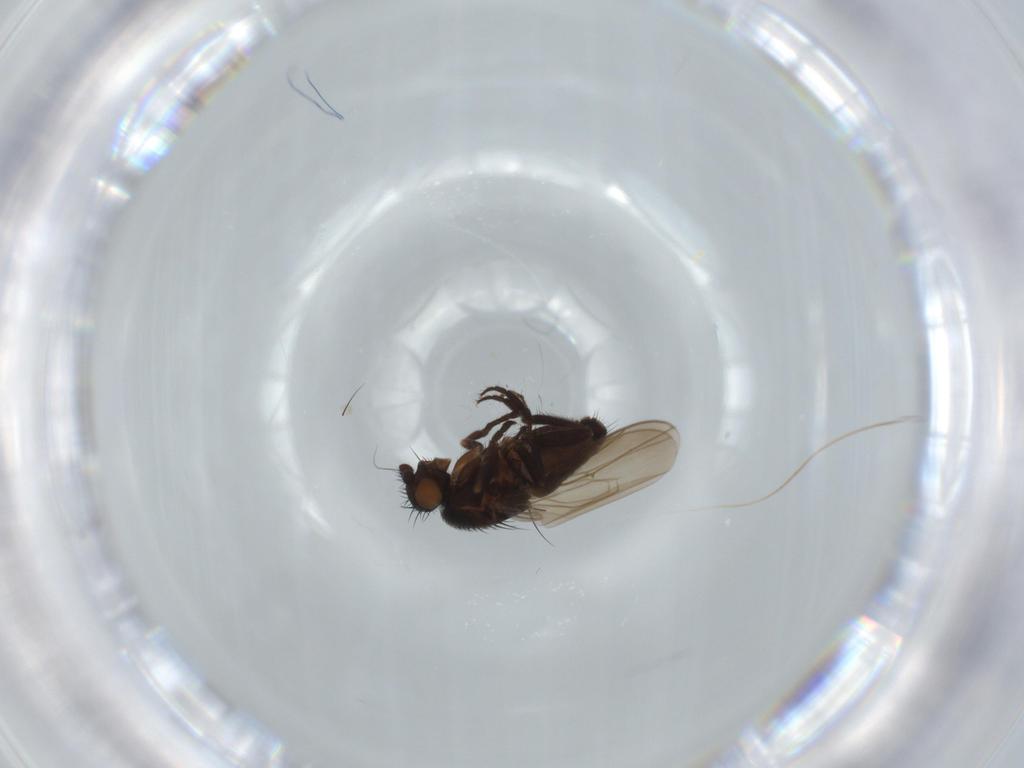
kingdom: Animalia
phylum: Arthropoda
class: Insecta
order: Diptera
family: Sphaeroceridae
